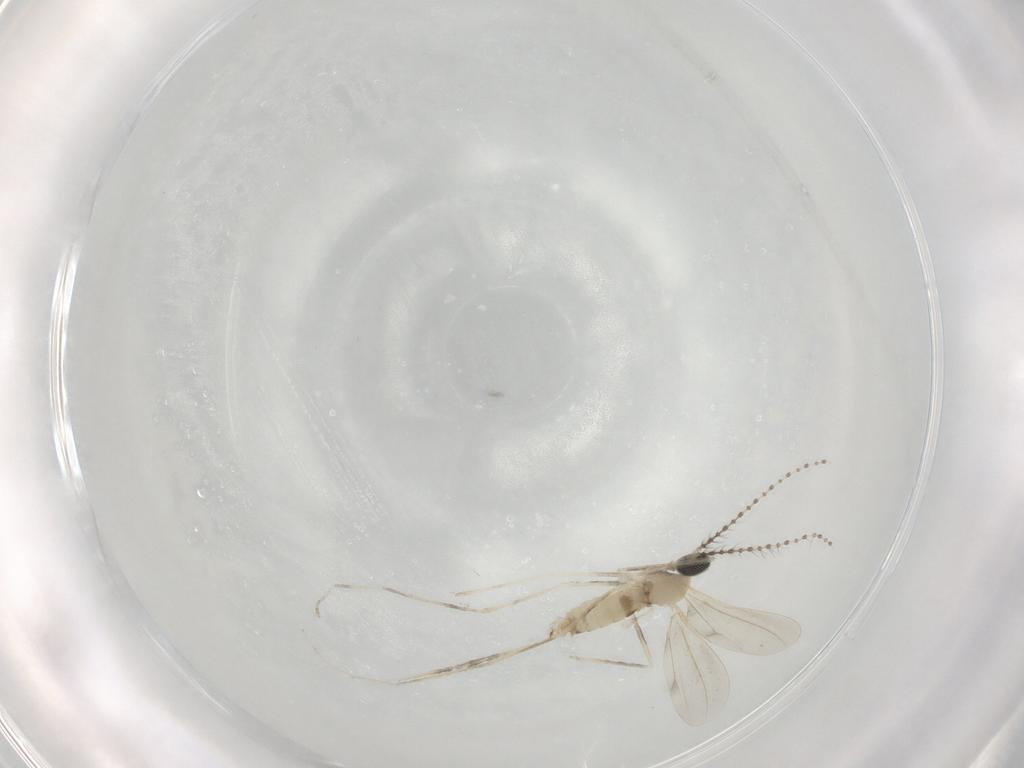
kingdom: Animalia
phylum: Arthropoda
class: Insecta
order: Diptera
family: Cecidomyiidae
